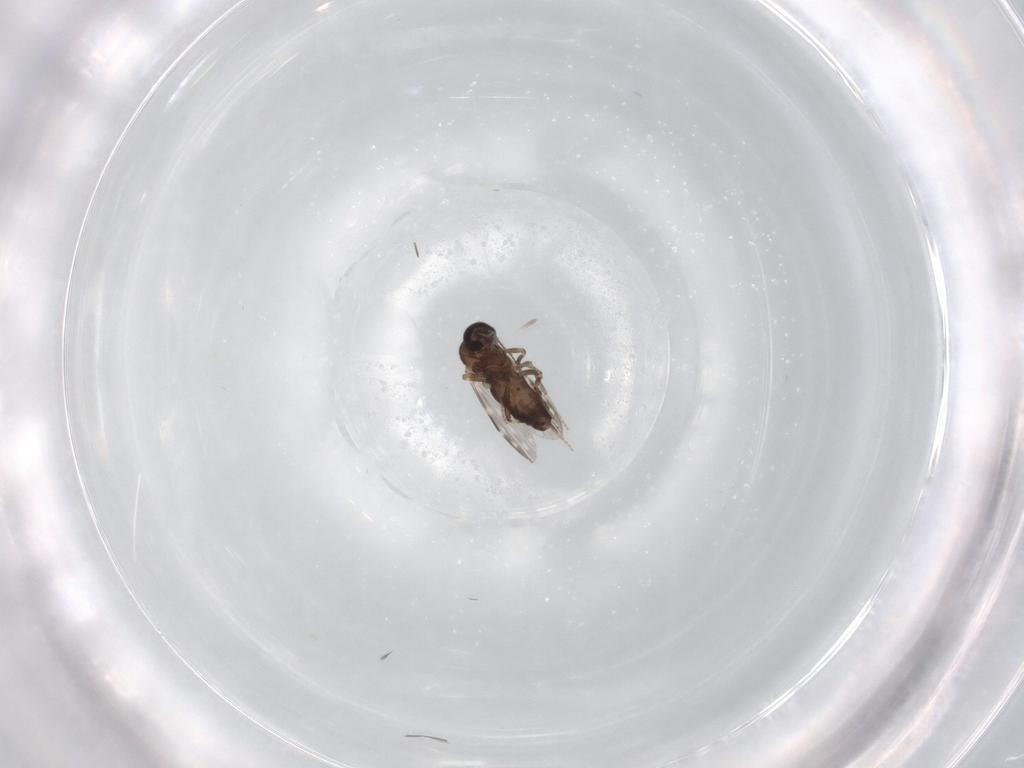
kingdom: Animalia
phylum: Arthropoda
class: Insecta
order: Diptera
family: Ceratopogonidae
